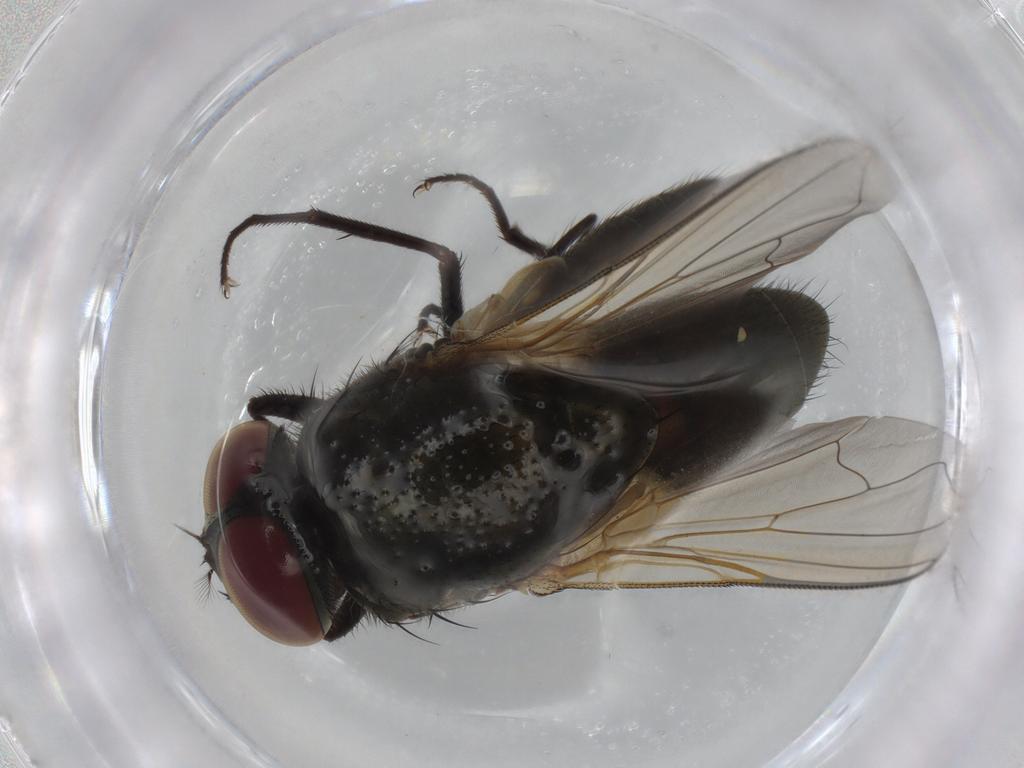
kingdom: Animalia
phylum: Arthropoda
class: Insecta
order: Diptera
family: Muscidae
